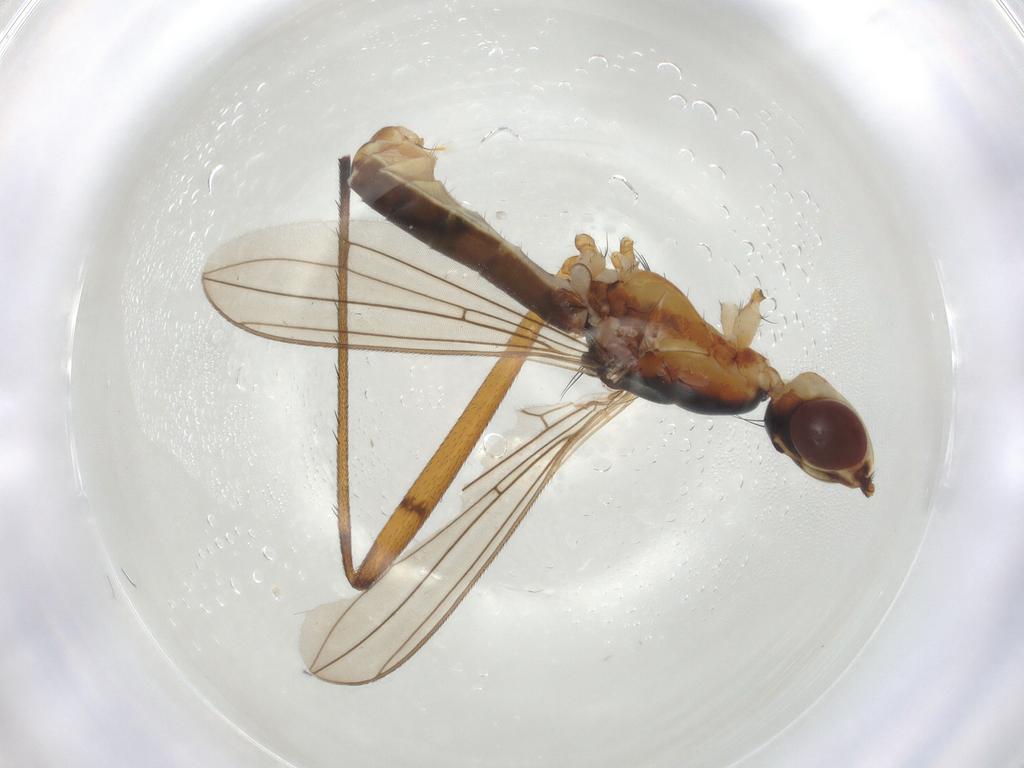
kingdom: Animalia
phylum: Arthropoda
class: Insecta
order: Diptera
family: Micropezidae
